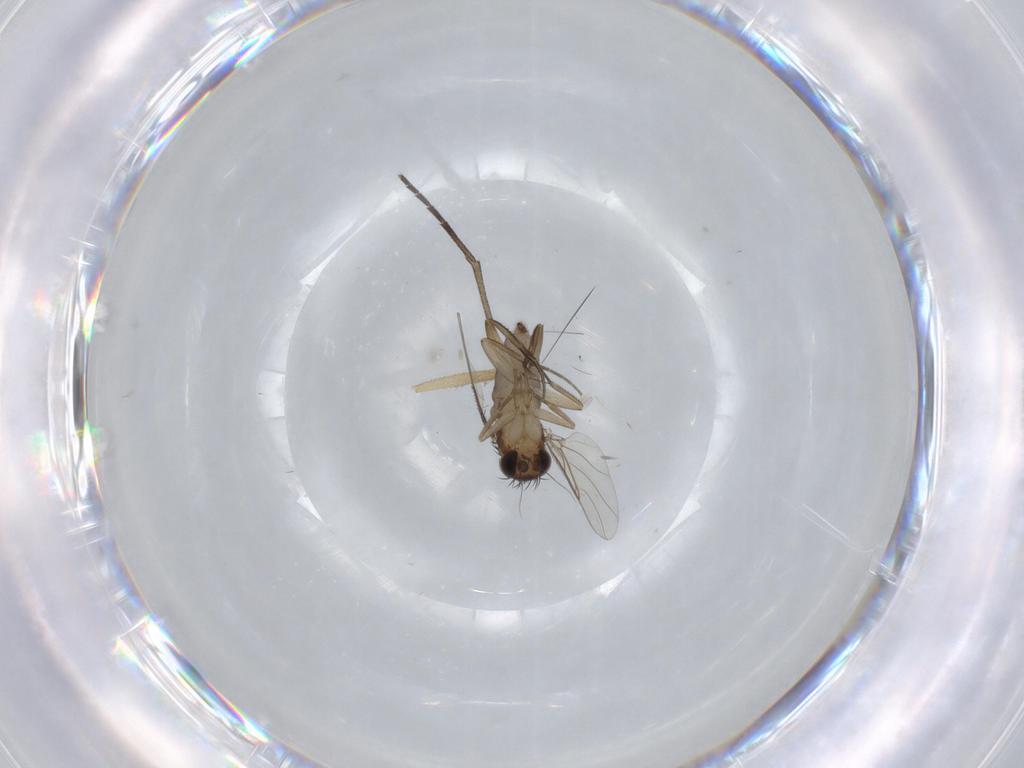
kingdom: Animalia
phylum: Arthropoda
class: Insecta
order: Diptera
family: Cecidomyiidae
